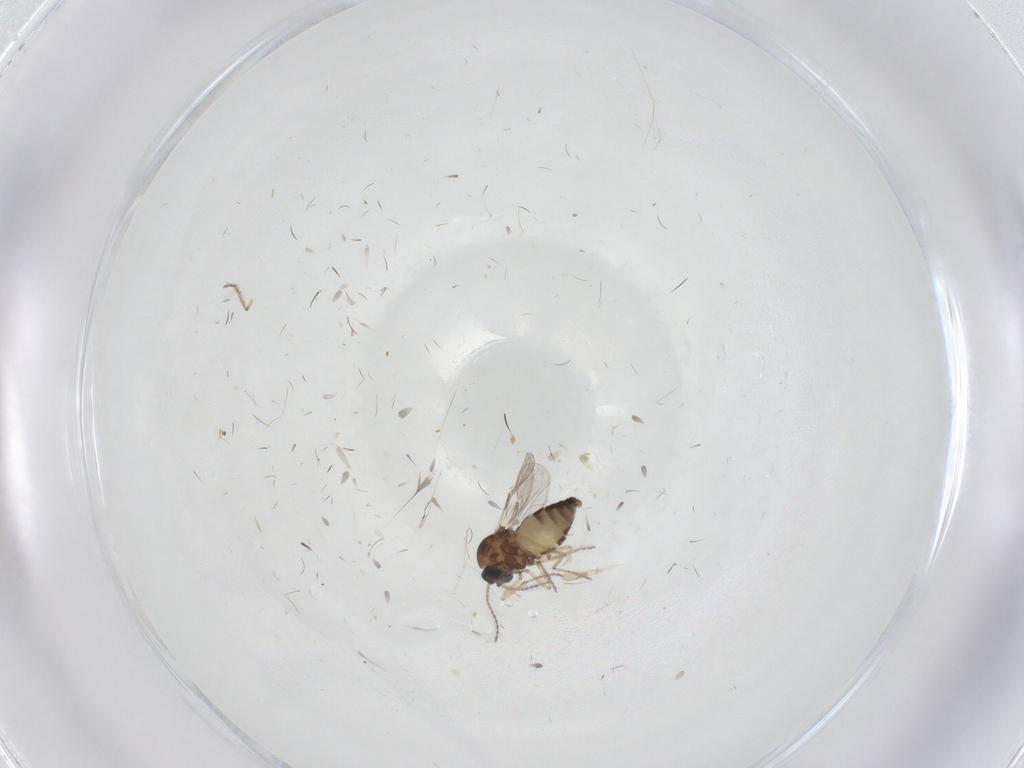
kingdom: Animalia
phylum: Arthropoda
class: Insecta
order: Diptera
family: Ceratopogonidae
